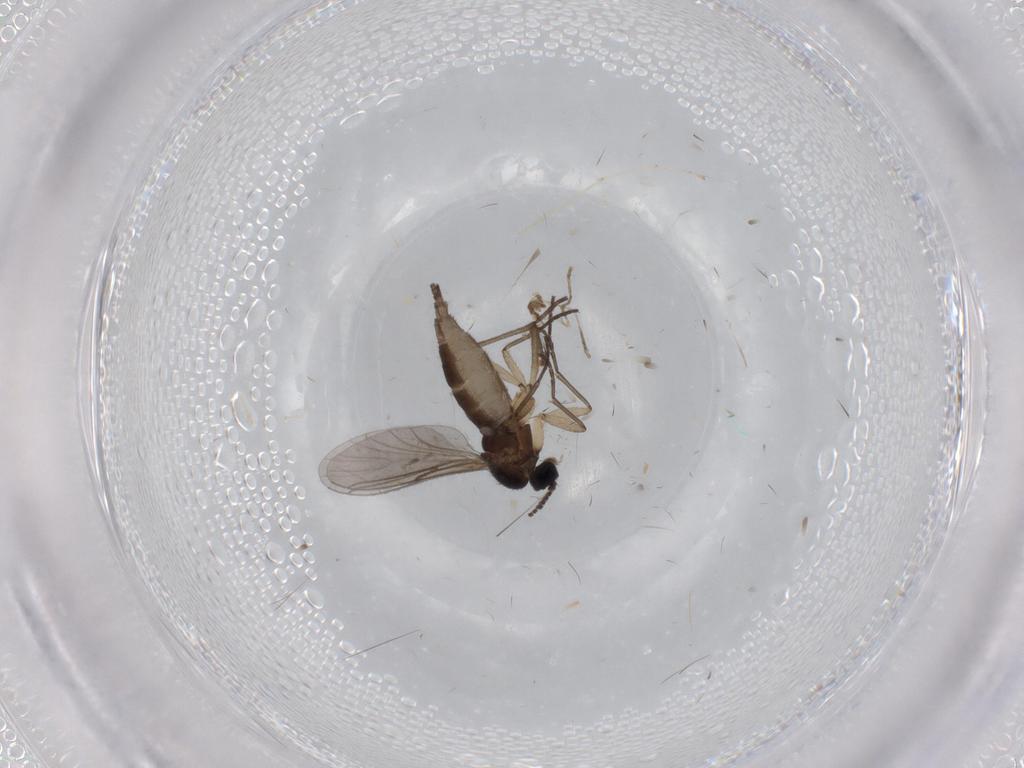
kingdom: Animalia
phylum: Arthropoda
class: Insecta
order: Diptera
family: Sciaridae
